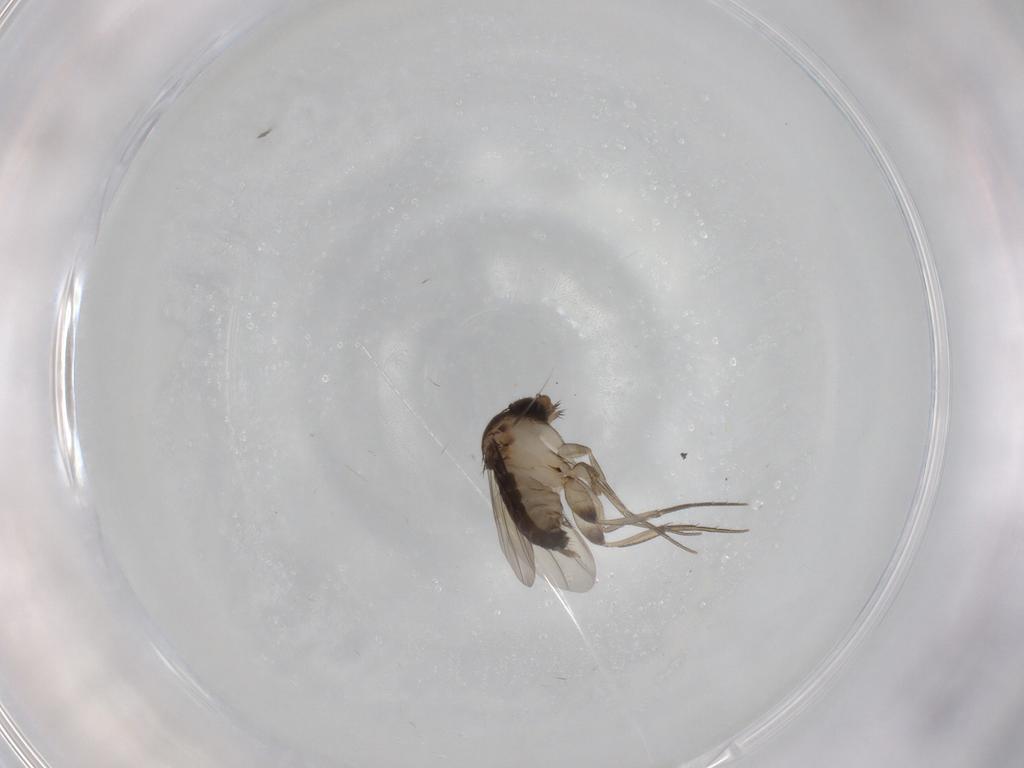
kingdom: Animalia
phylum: Arthropoda
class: Insecta
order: Diptera
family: Phoridae
